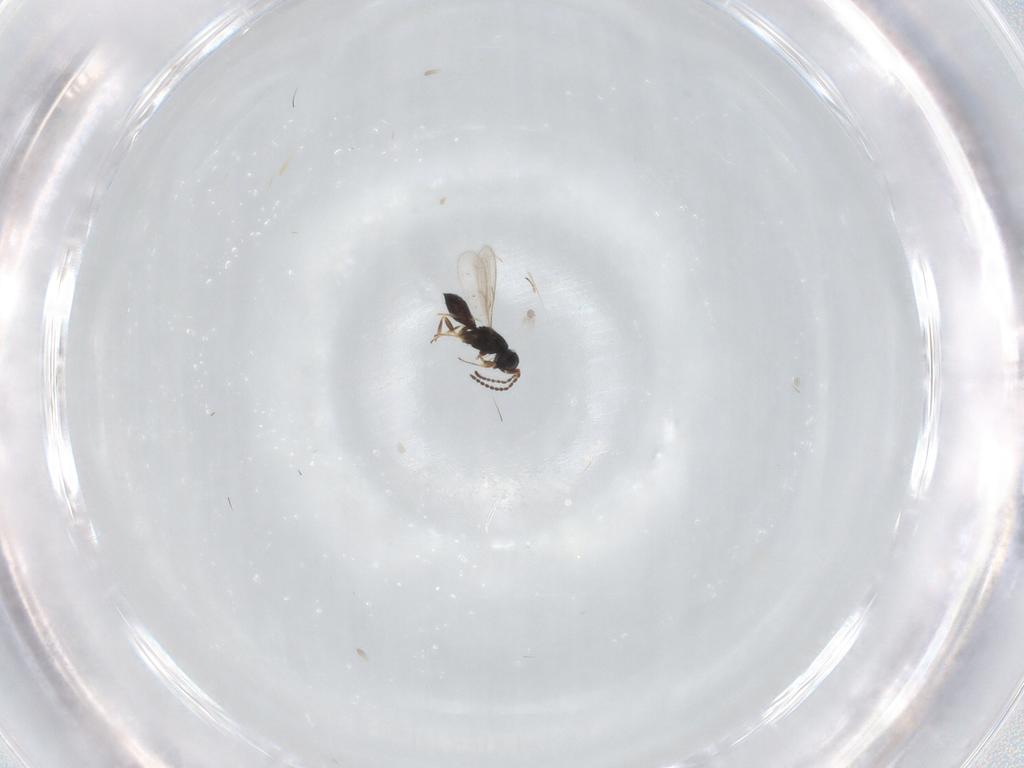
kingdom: Animalia
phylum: Arthropoda
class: Insecta
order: Hymenoptera
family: Scelionidae
